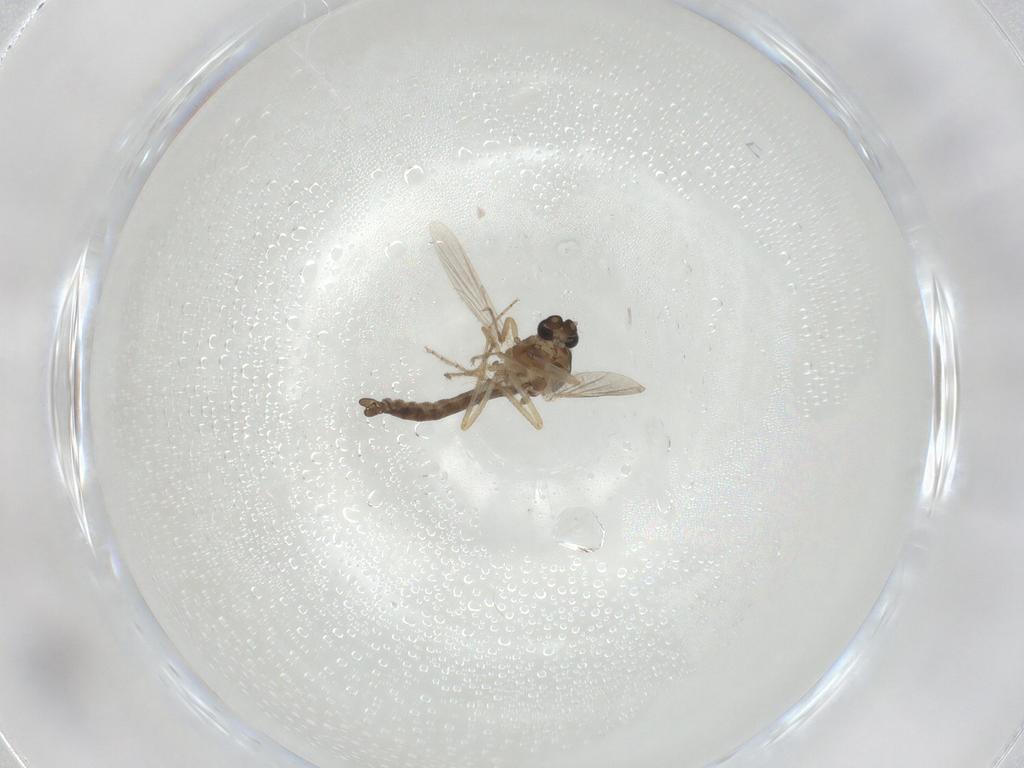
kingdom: Animalia
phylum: Arthropoda
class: Insecta
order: Diptera
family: Ceratopogonidae
